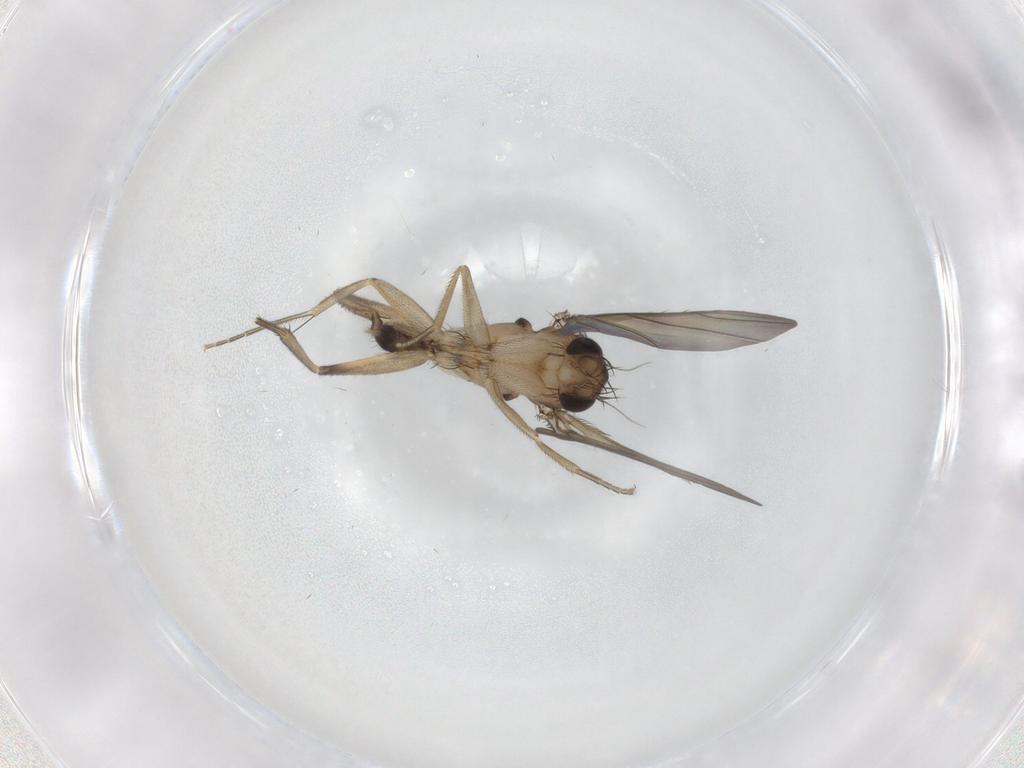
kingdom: Animalia
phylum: Arthropoda
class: Insecta
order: Diptera
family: Phoridae
